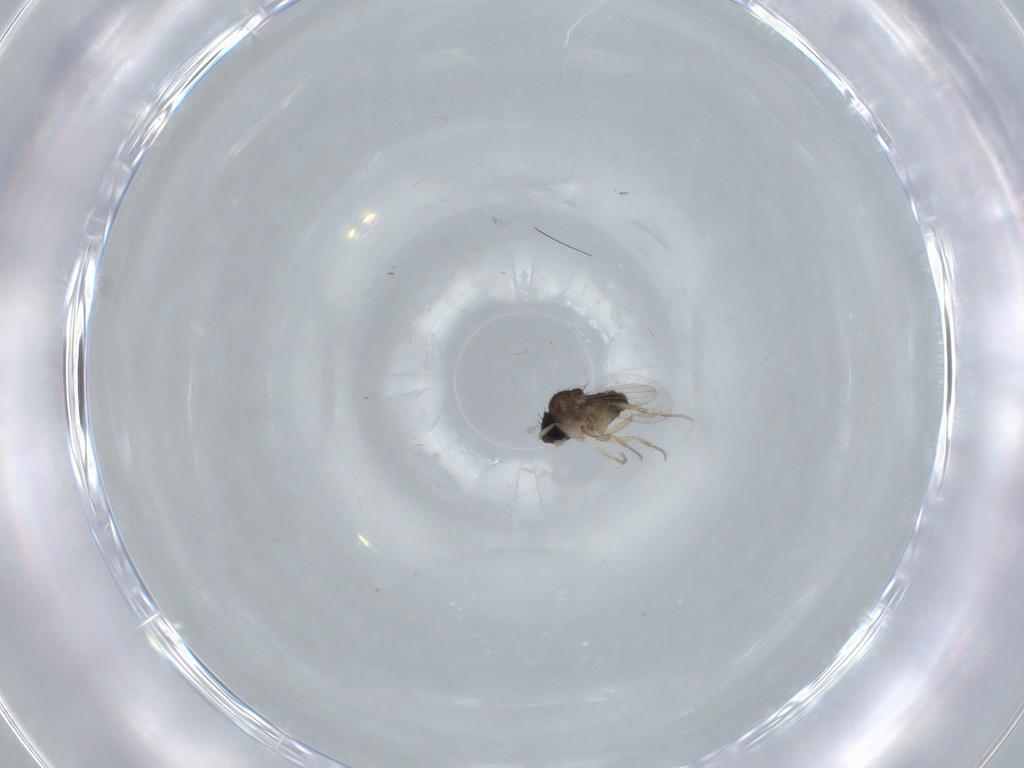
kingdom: Animalia
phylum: Arthropoda
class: Insecta
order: Diptera
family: Phoridae
